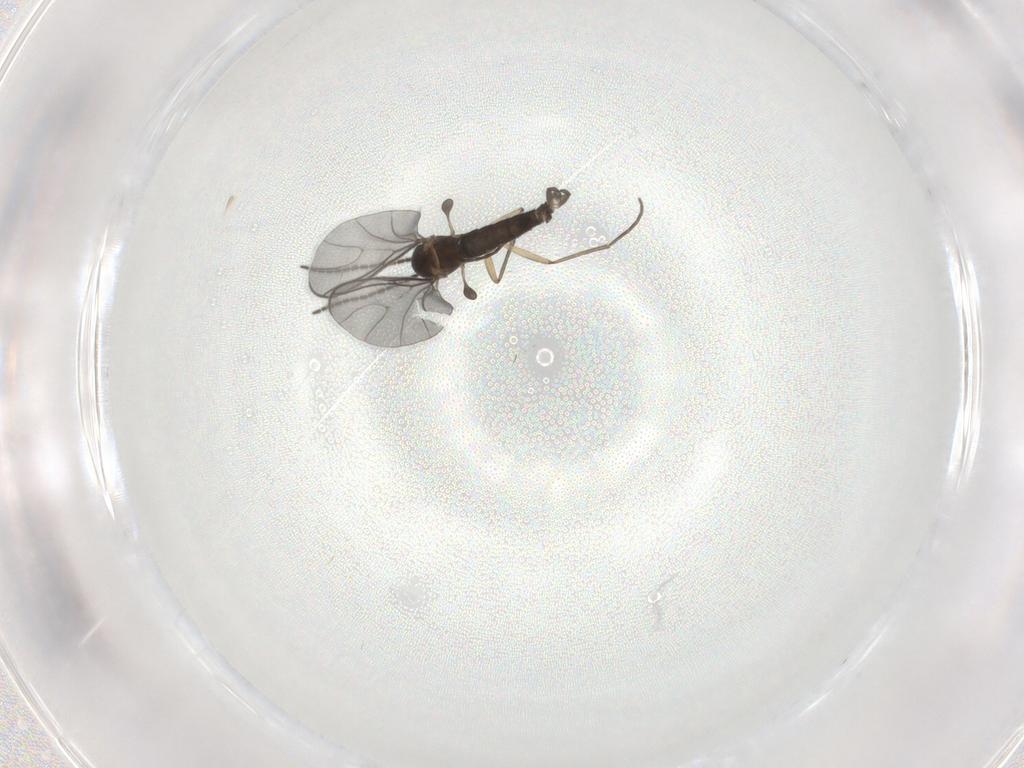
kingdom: Animalia
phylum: Arthropoda
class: Insecta
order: Diptera
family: Sciaridae
